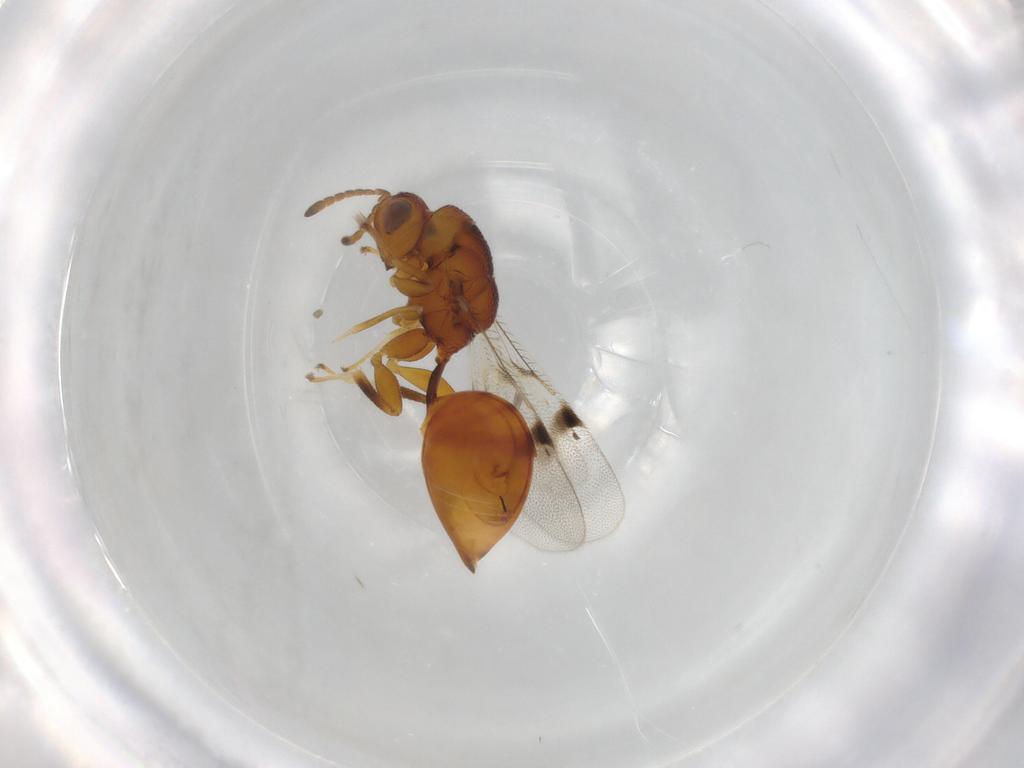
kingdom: Animalia
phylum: Arthropoda
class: Insecta
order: Hymenoptera
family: Eurytomidae
